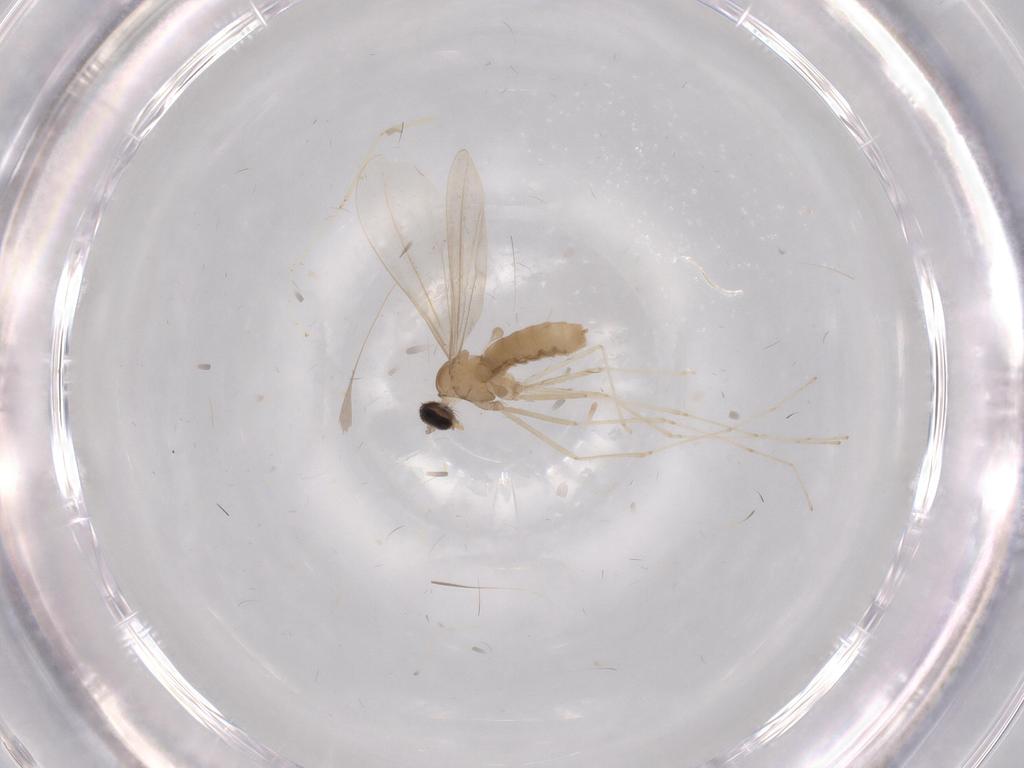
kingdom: Animalia
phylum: Arthropoda
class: Insecta
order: Diptera
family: Cecidomyiidae
